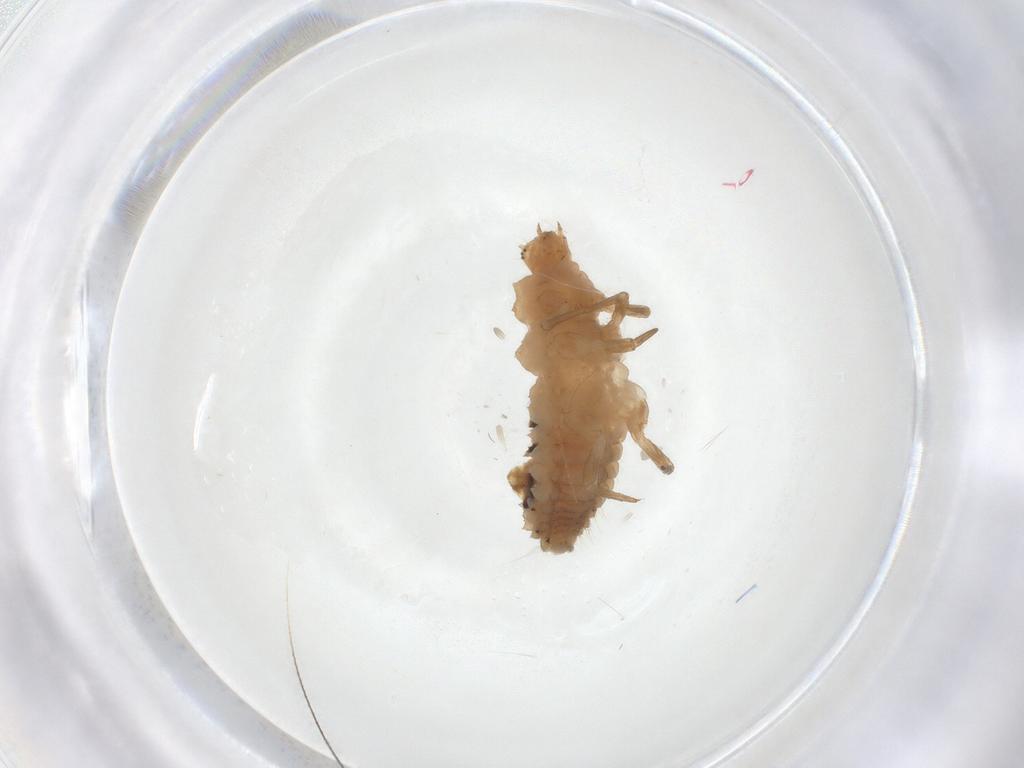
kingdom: Animalia
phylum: Arthropoda
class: Insecta
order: Coleoptera
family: Coccinellidae
